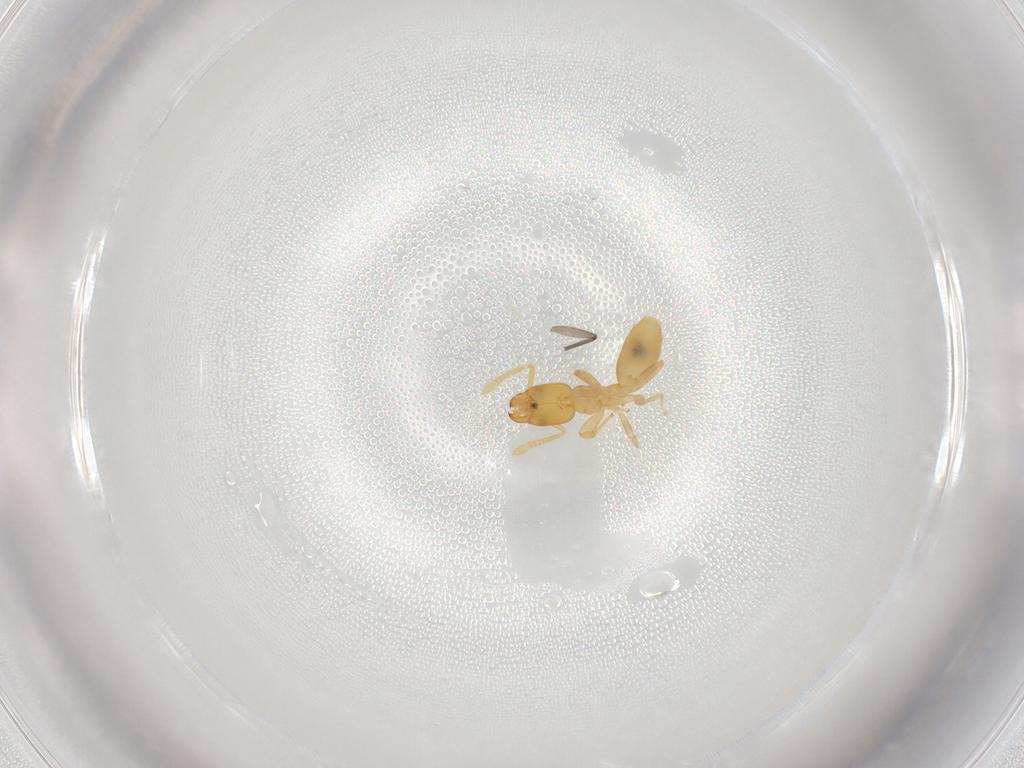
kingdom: Animalia
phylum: Arthropoda
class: Insecta
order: Hymenoptera
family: Formicidae
